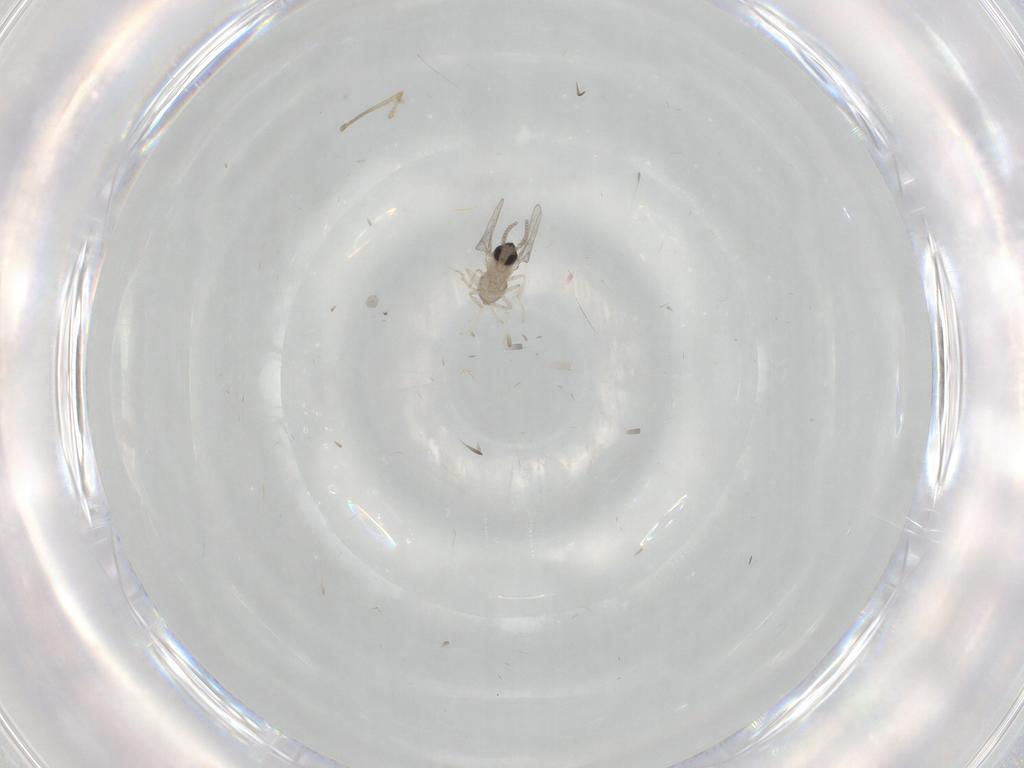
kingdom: Animalia
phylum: Arthropoda
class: Insecta
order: Diptera
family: Cecidomyiidae
